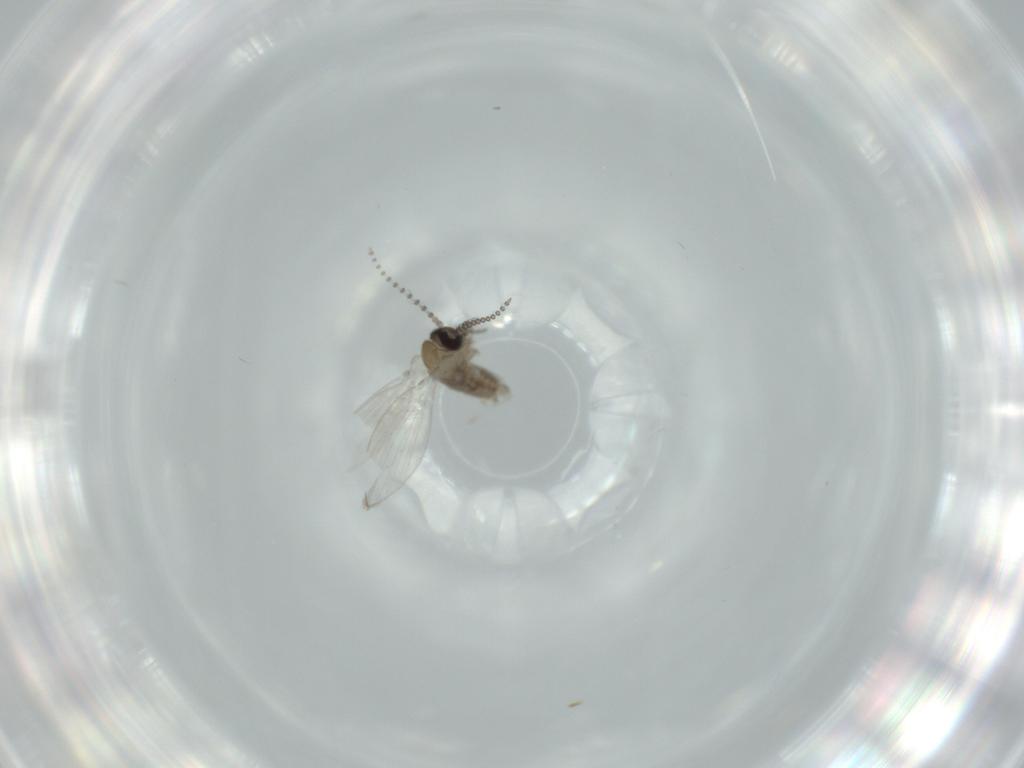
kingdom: Animalia
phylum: Arthropoda
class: Insecta
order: Diptera
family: Psychodidae
